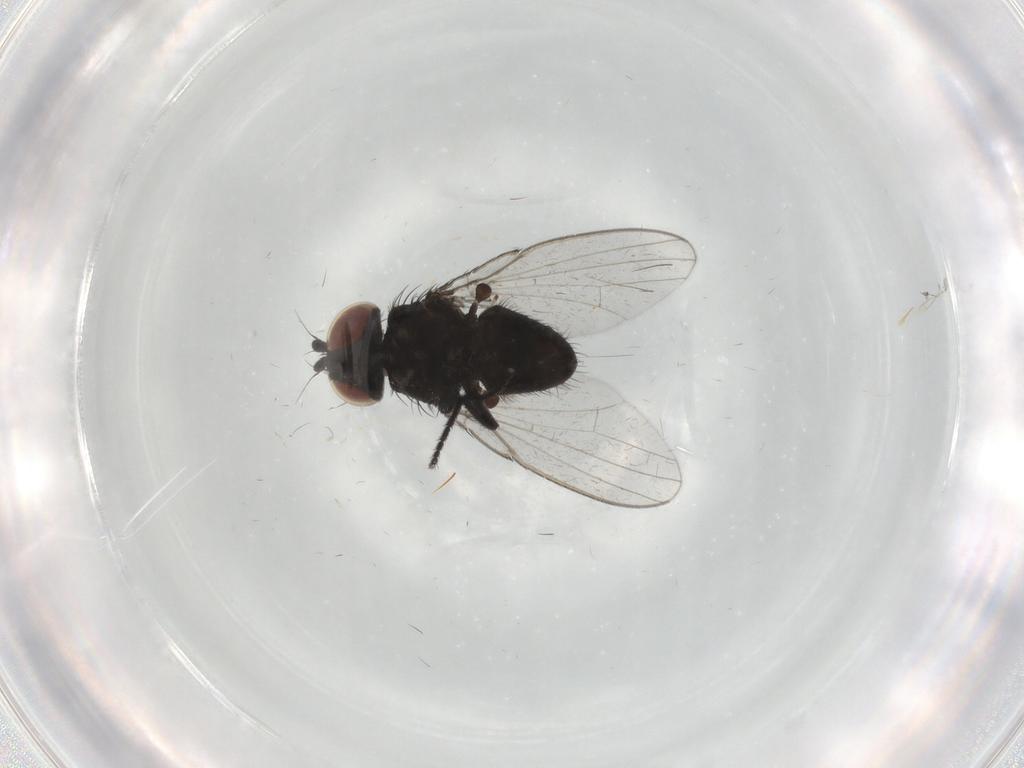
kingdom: Animalia
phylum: Arthropoda
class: Insecta
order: Diptera
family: Milichiidae
